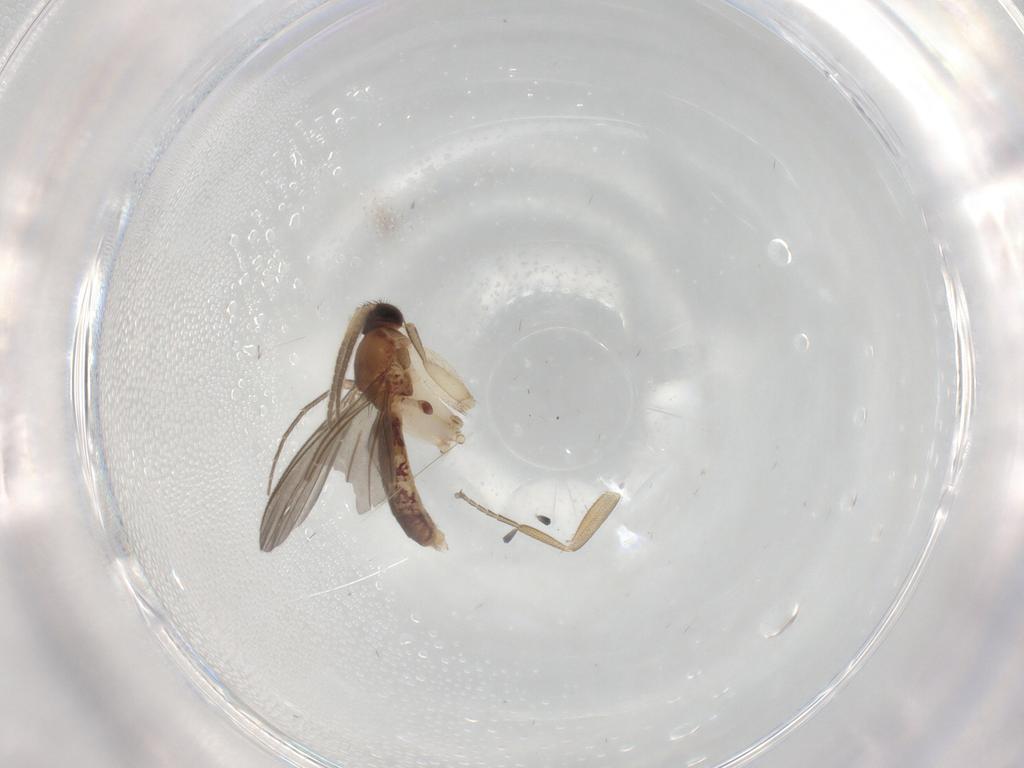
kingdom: Animalia
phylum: Arthropoda
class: Insecta
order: Diptera
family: Mycetophilidae
